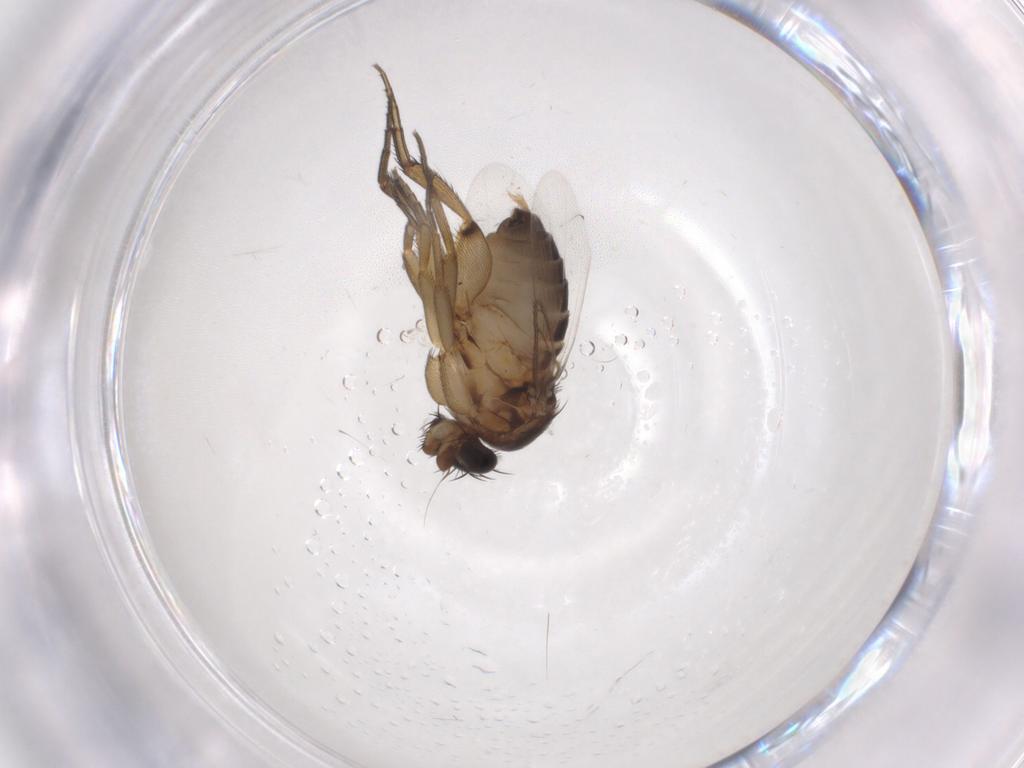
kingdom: Animalia
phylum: Arthropoda
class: Insecta
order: Diptera
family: Phoridae
